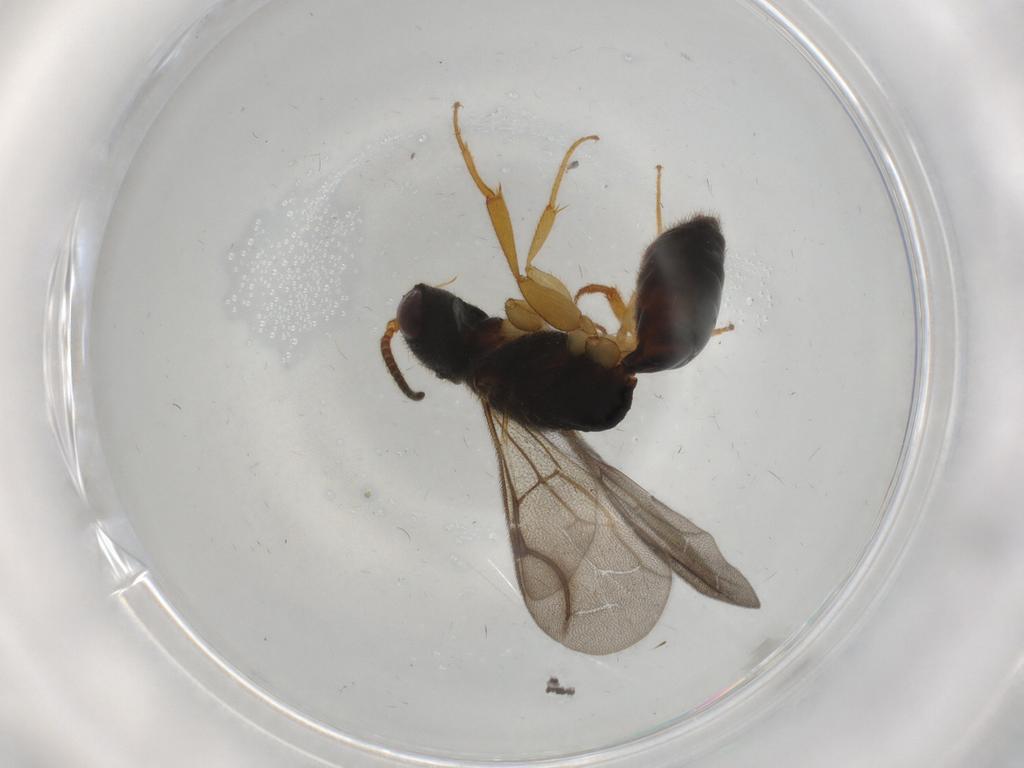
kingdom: Animalia
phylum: Arthropoda
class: Insecta
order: Hymenoptera
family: Bethylidae
